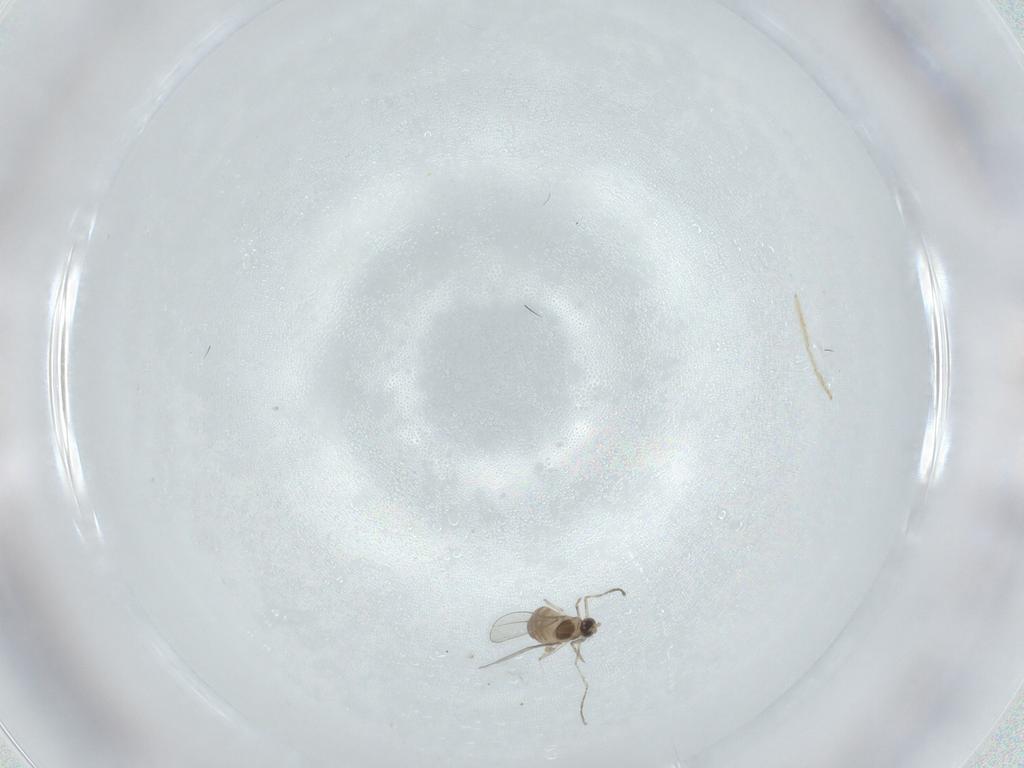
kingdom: Animalia
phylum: Arthropoda
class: Insecta
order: Diptera
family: Cecidomyiidae
